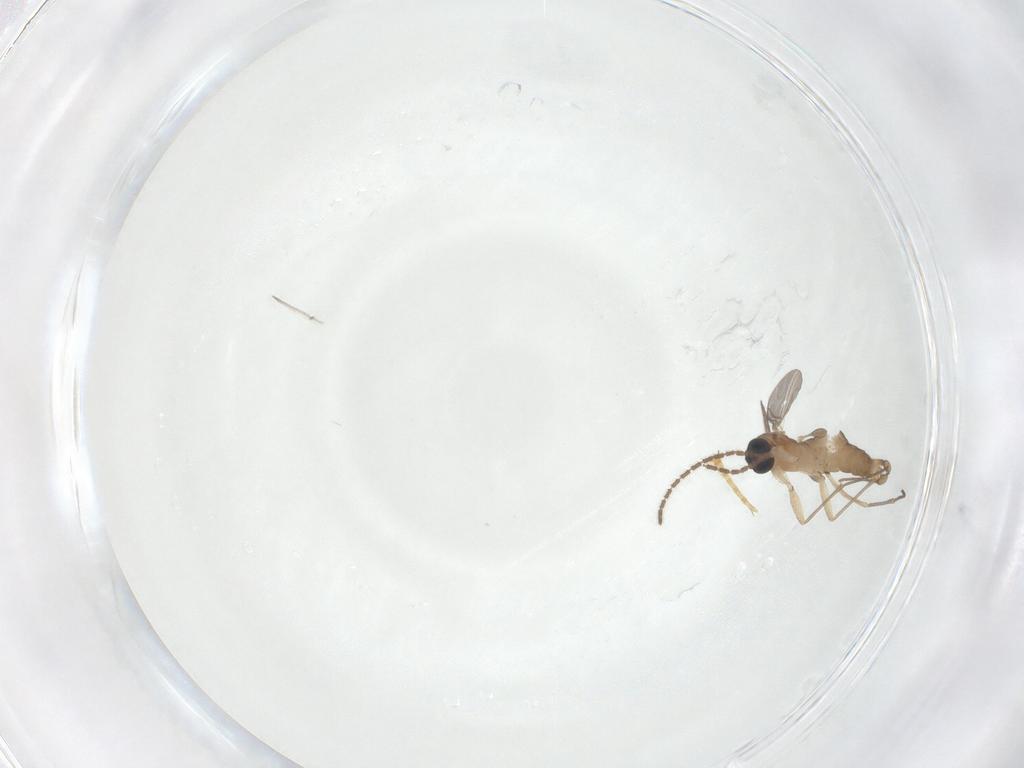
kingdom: Animalia
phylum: Arthropoda
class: Insecta
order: Diptera
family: Sciaridae
